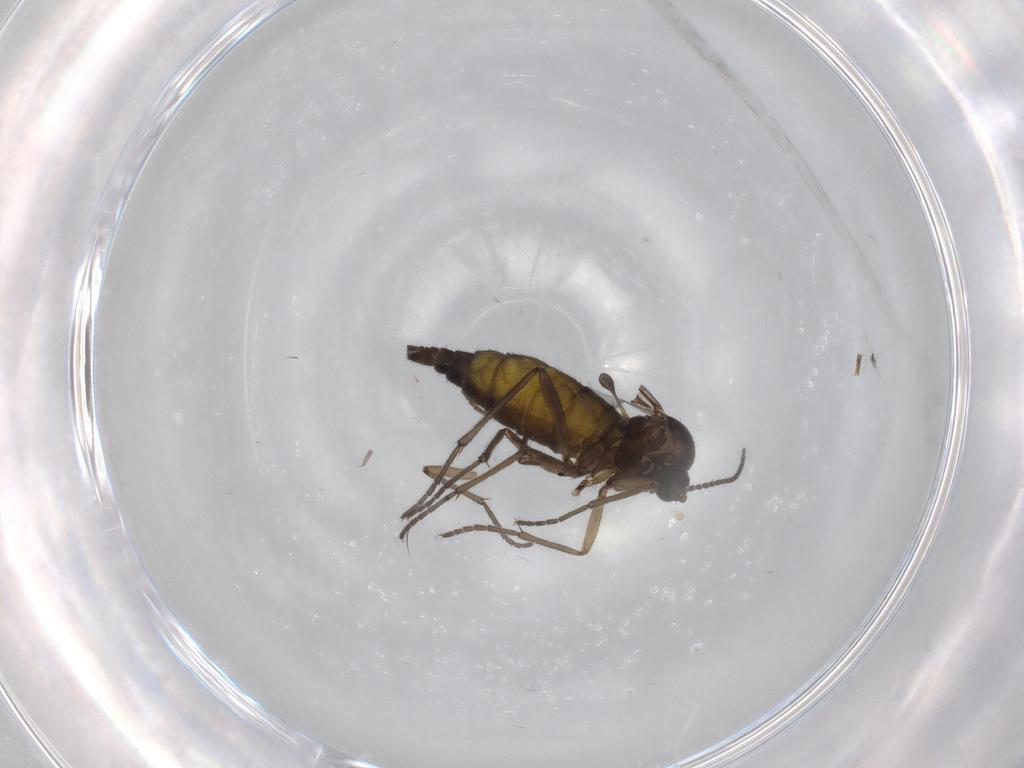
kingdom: Animalia
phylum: Arthropoda
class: Insecta
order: Diptera
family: Sciaridae
